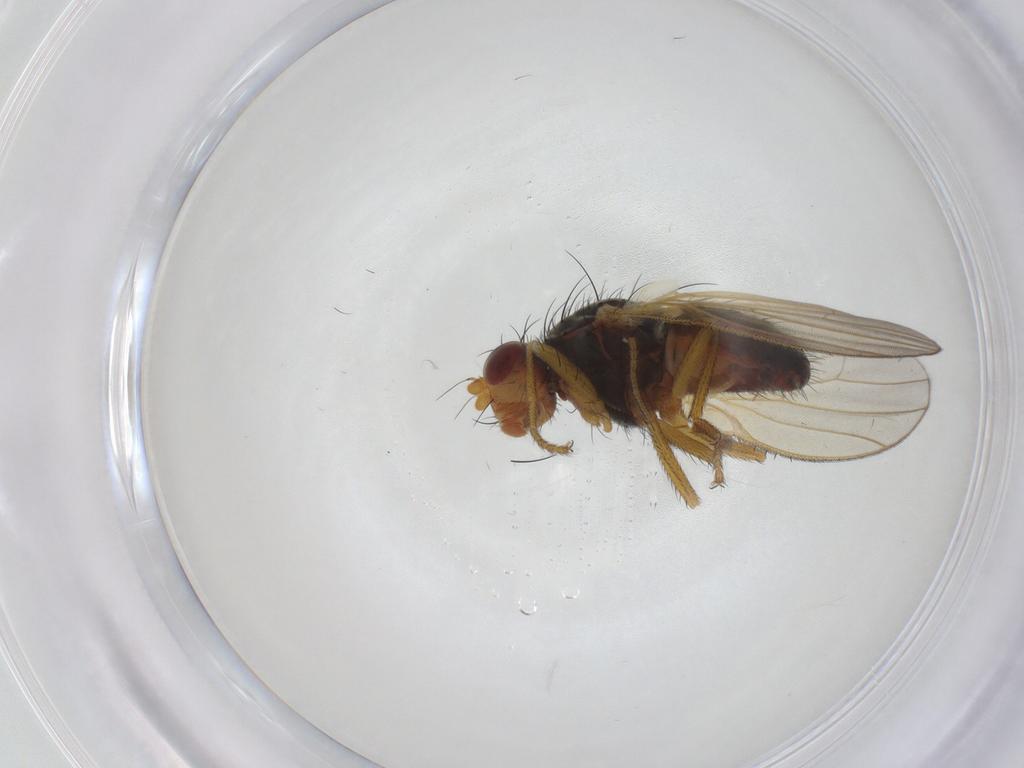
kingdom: Animalia
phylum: Arthropoda
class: Insecta
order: Diptera
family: Heleomyzidae
